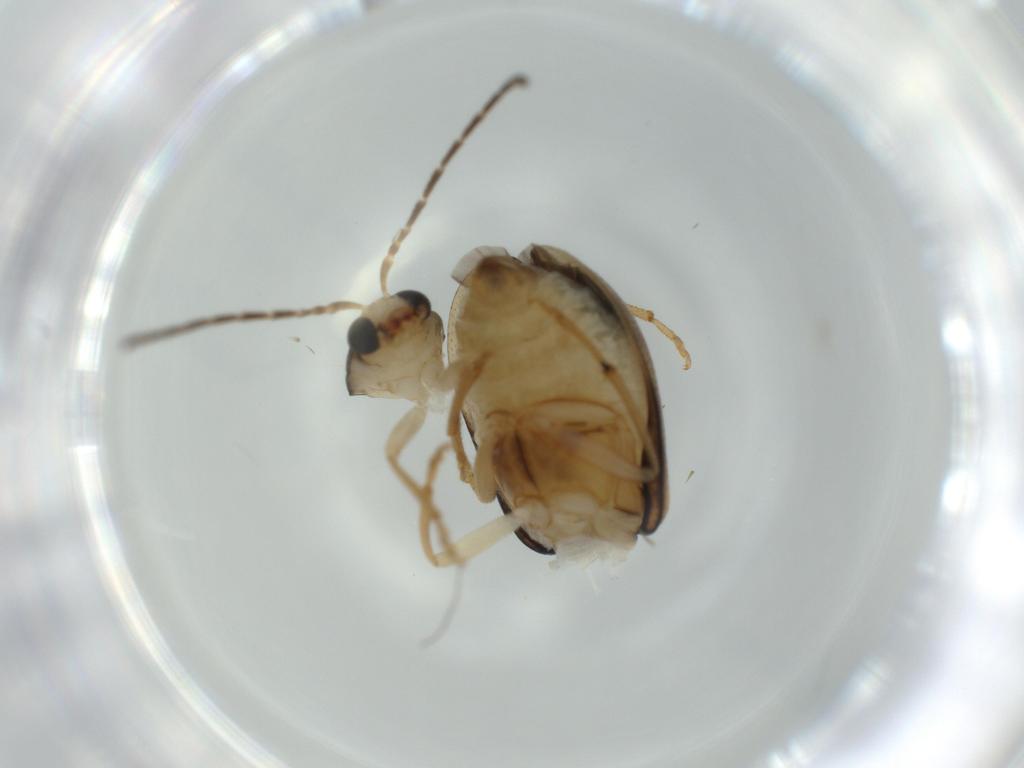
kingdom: Animalia
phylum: Arthropoda
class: Insecta
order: Coleoptera
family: Chrysomelidae
